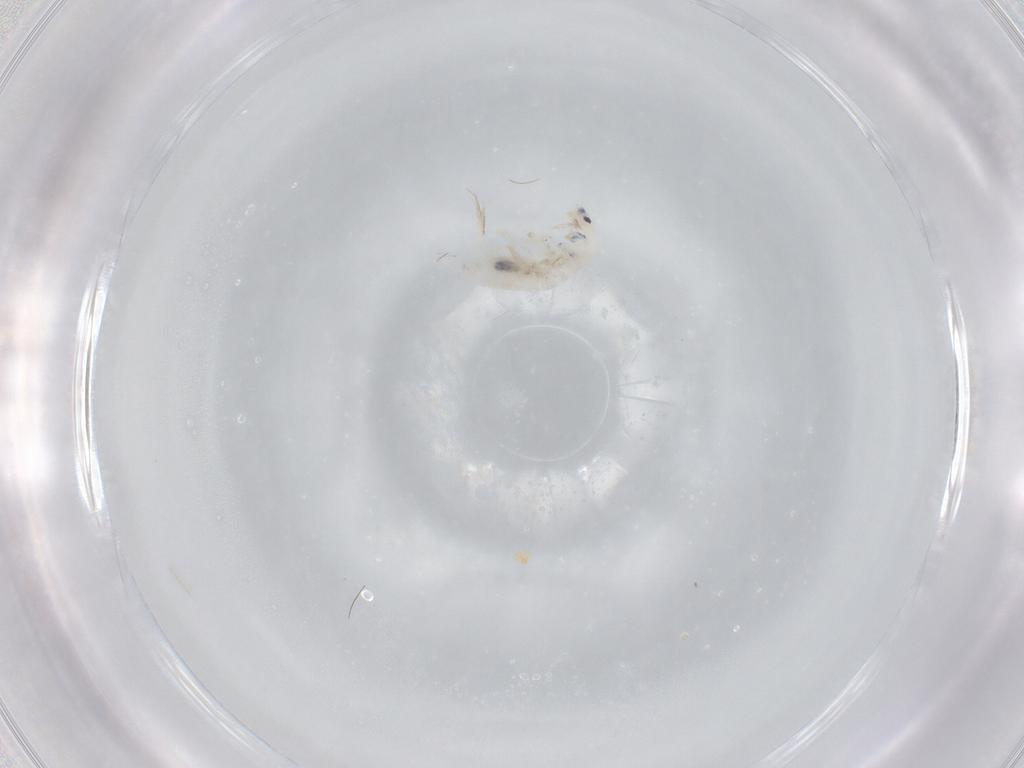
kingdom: Animalia
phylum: Arthropoda
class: Collembola
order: Entomobryomorpha
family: Entomobryidae
